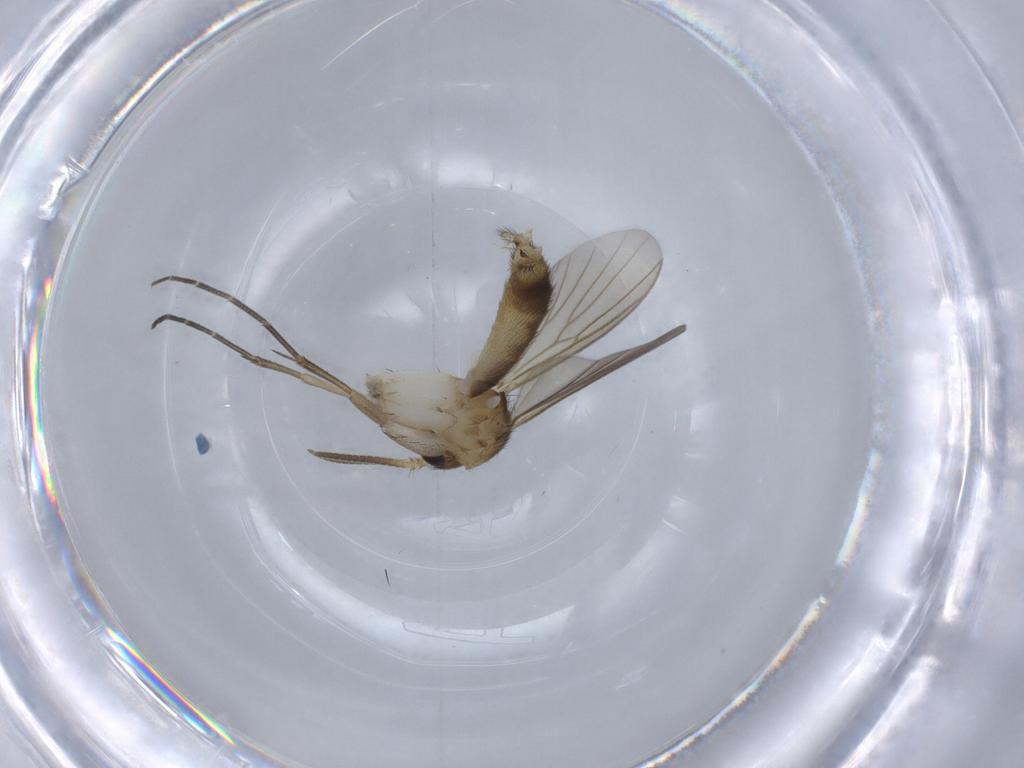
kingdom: Animalia
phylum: Arthropoda
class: Insecta
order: Diptera
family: Mycetophilidae
